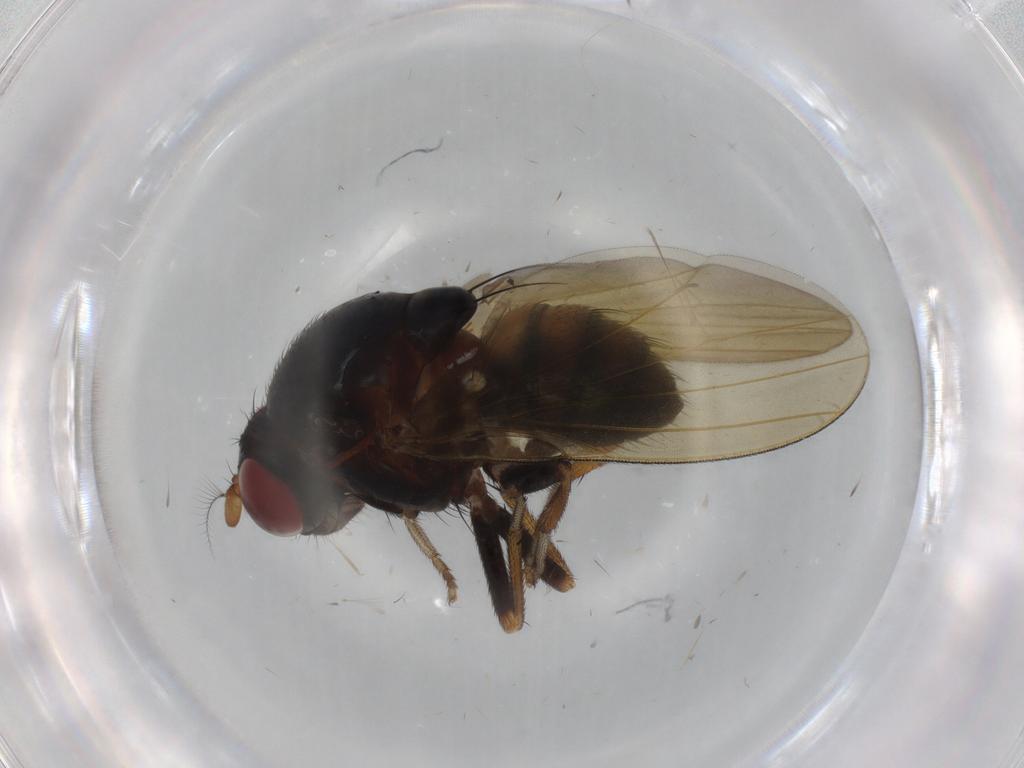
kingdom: Animalia
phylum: Arthropoda
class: Insecta
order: Diptera
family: Lauxaniidae
